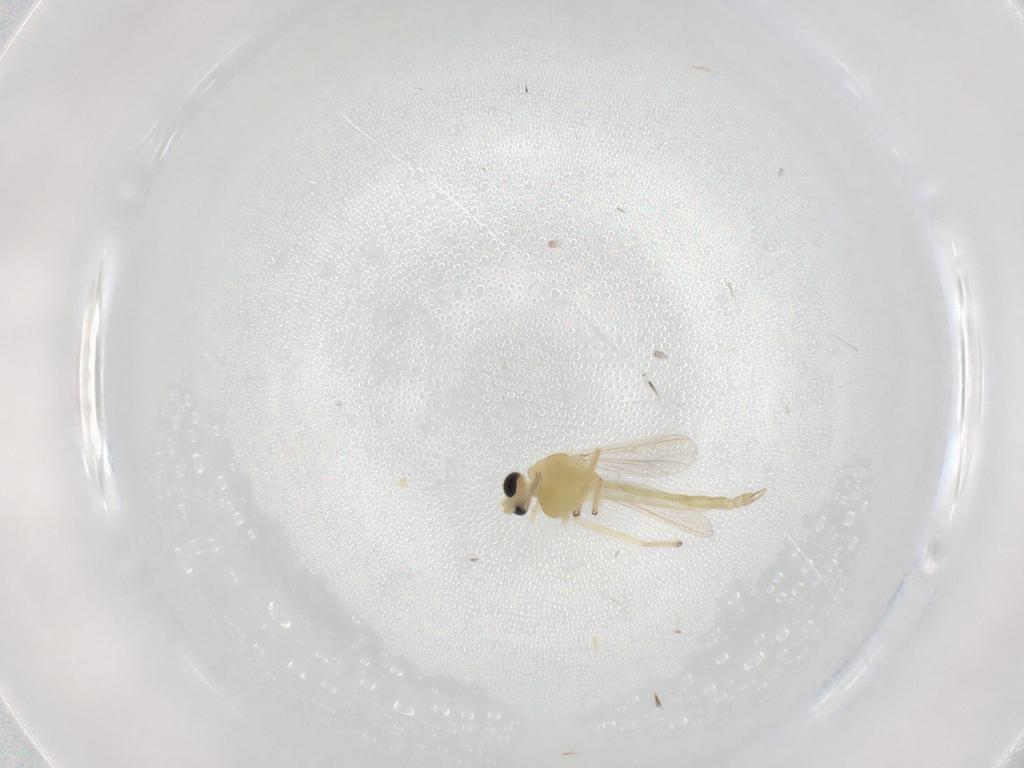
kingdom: Animalia
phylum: Arthropoda
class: Insecta
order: Diptera
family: Chironomidae
